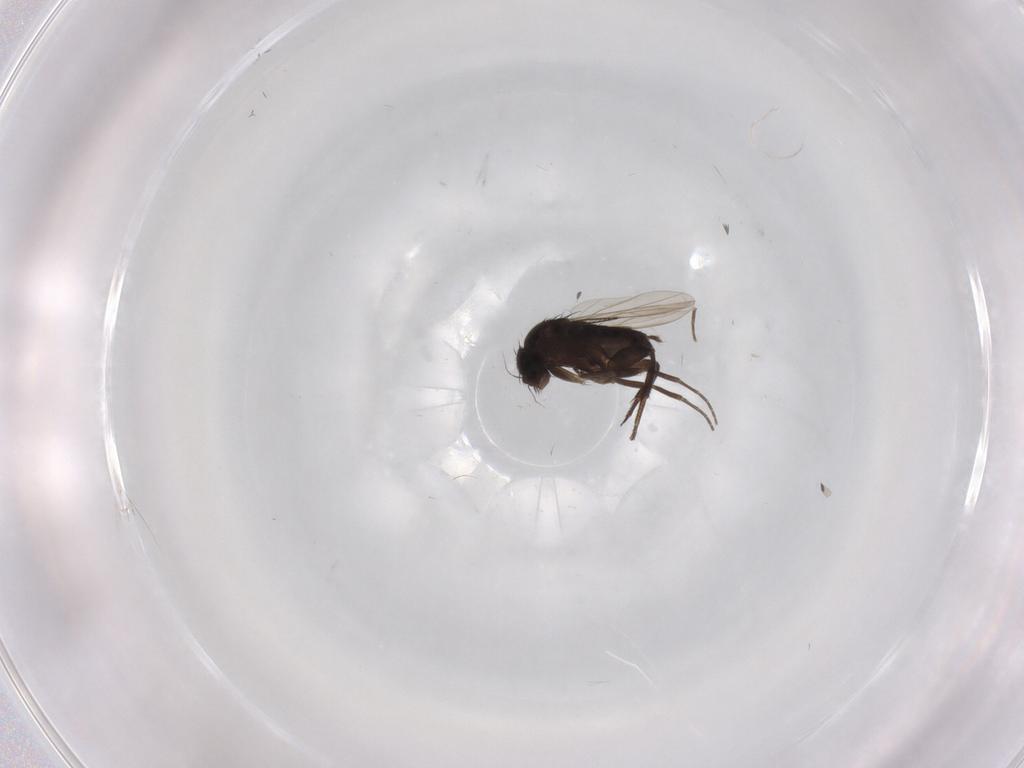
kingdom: Animalia
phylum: Arthropoda
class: Insecta
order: Diptera
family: Phoridae
